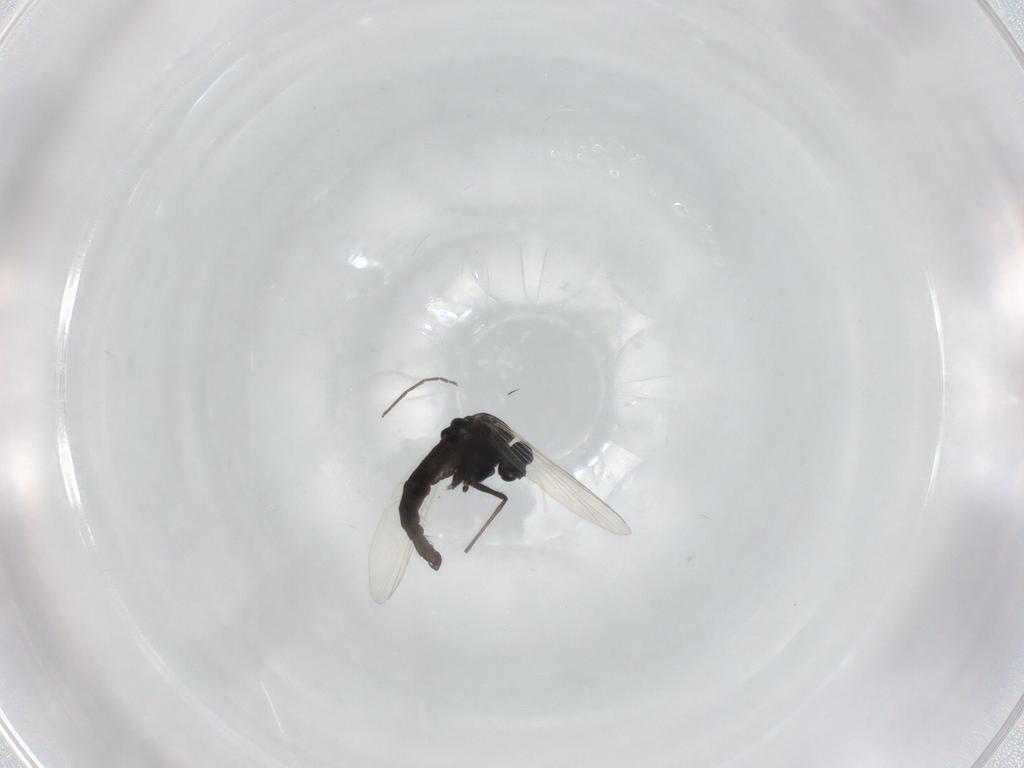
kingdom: Animalia
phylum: Arthropoda
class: Insecta
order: Diptera
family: Chironomidae
